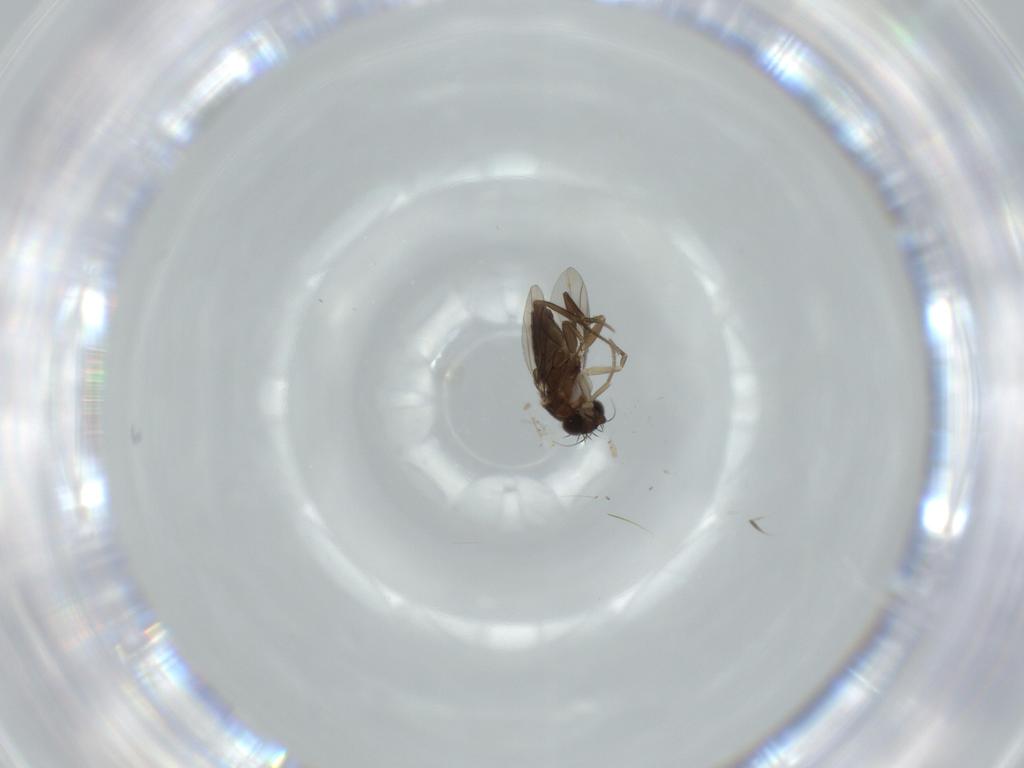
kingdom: Animalia
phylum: Arthropoda
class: Insecta
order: Diptera
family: Phoridae
